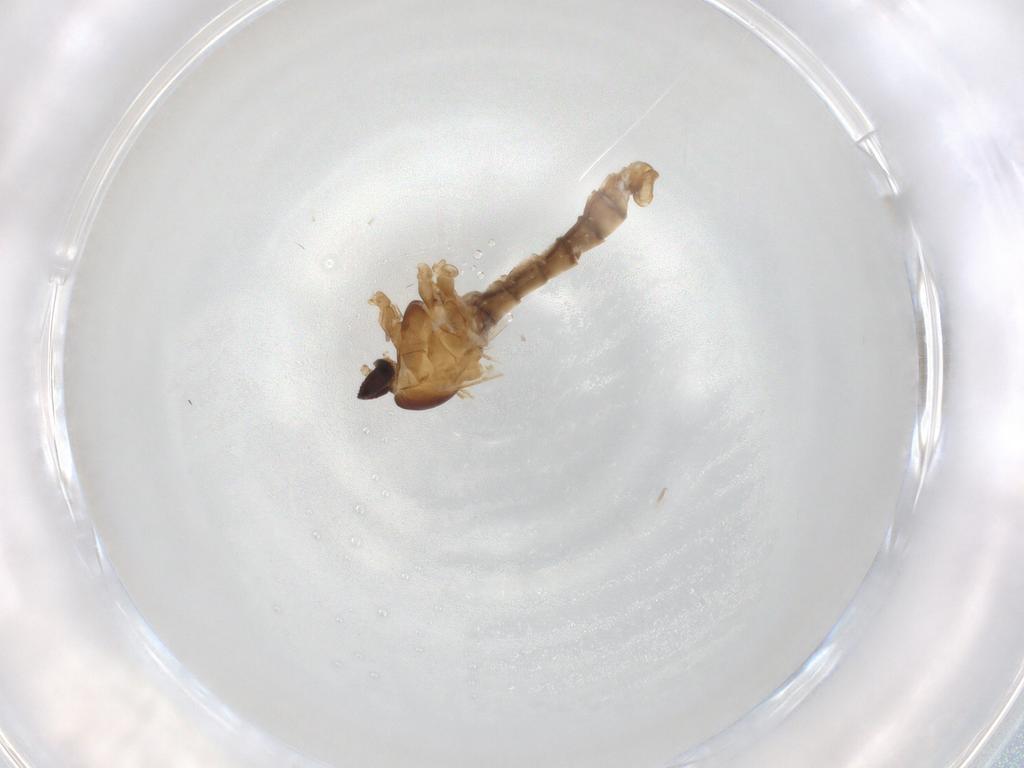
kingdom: Animalia
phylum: Arthropoda
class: Insecta
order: Diptera
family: Cecidomyiidae
